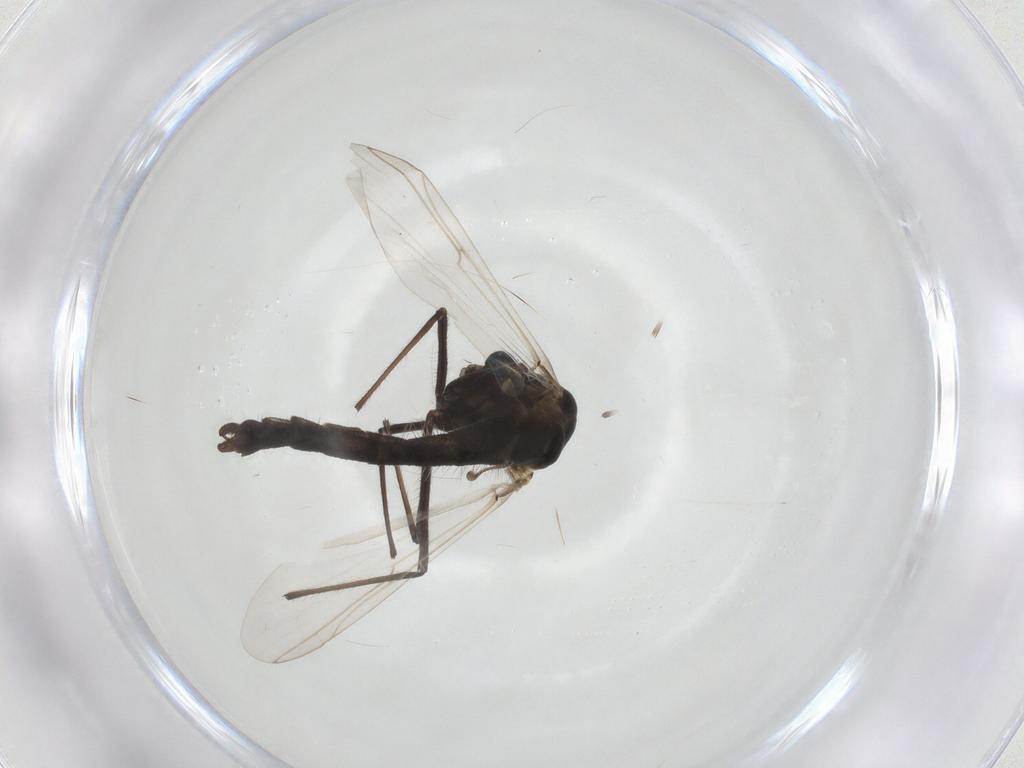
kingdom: Animalia
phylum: Arthropoda
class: Insecta
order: Diptera
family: Chironomidae
